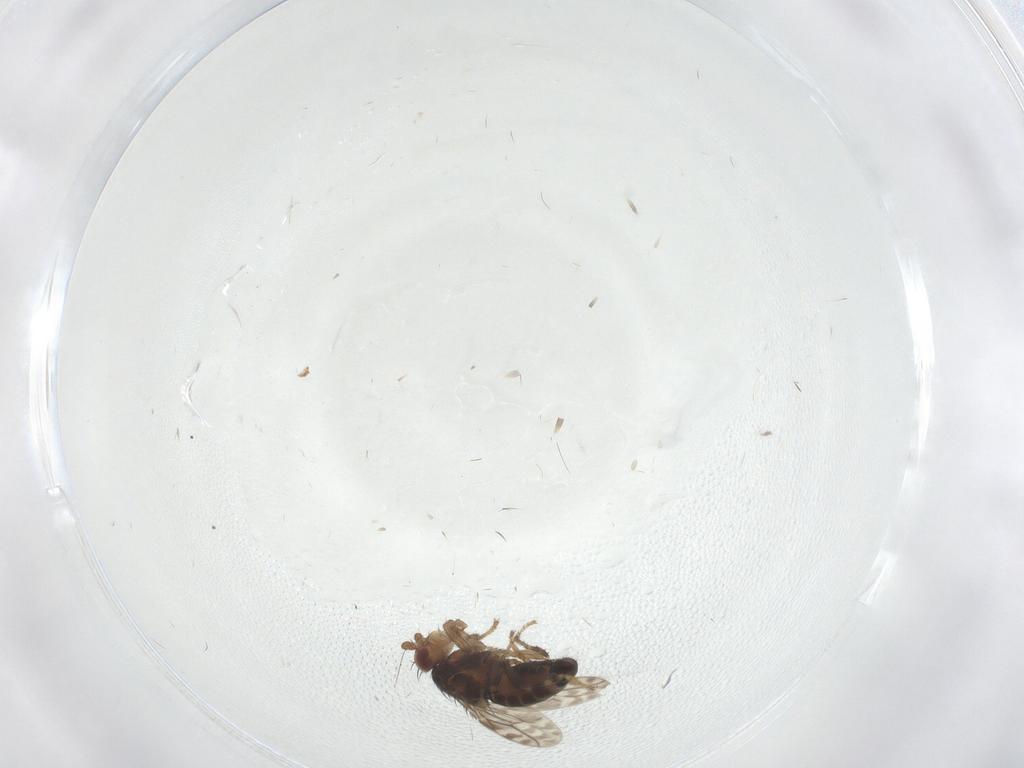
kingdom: Animalia
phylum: Arthropoda
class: Insecta
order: Diptera
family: Sphaeroceridae
